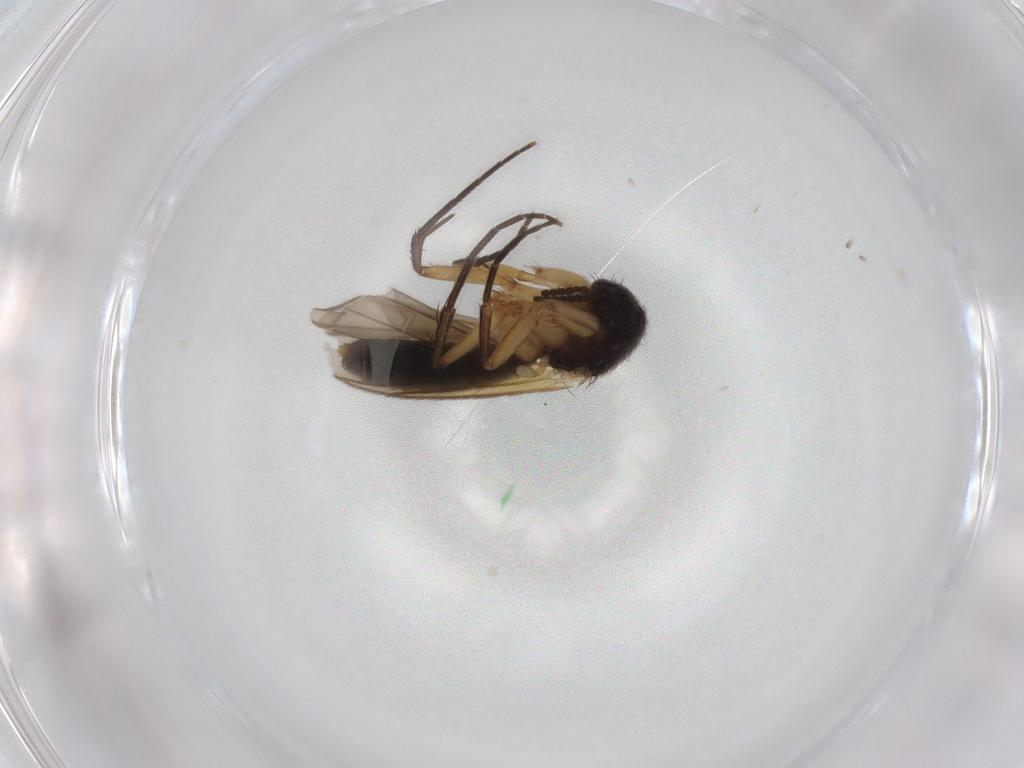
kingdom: Animalia
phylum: Arthropoda
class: Insecta
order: Diptera
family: Mycetophilidae
